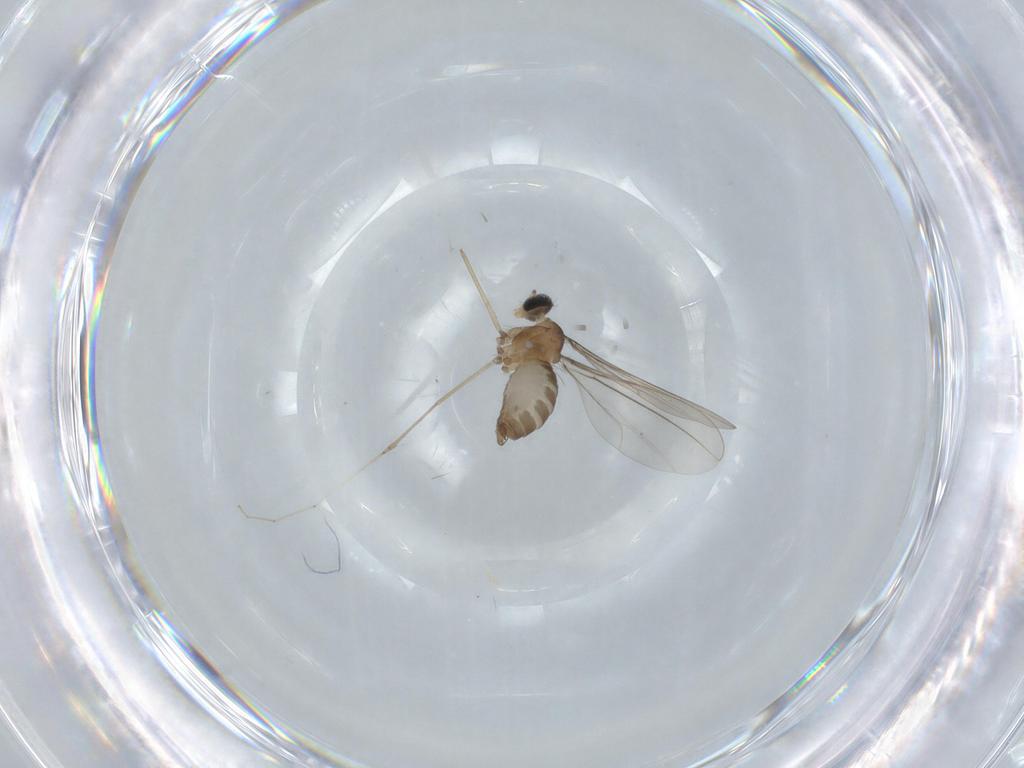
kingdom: Animalia
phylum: Arthropoda
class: Insecta
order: Diptera
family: Cecidomyiidae
